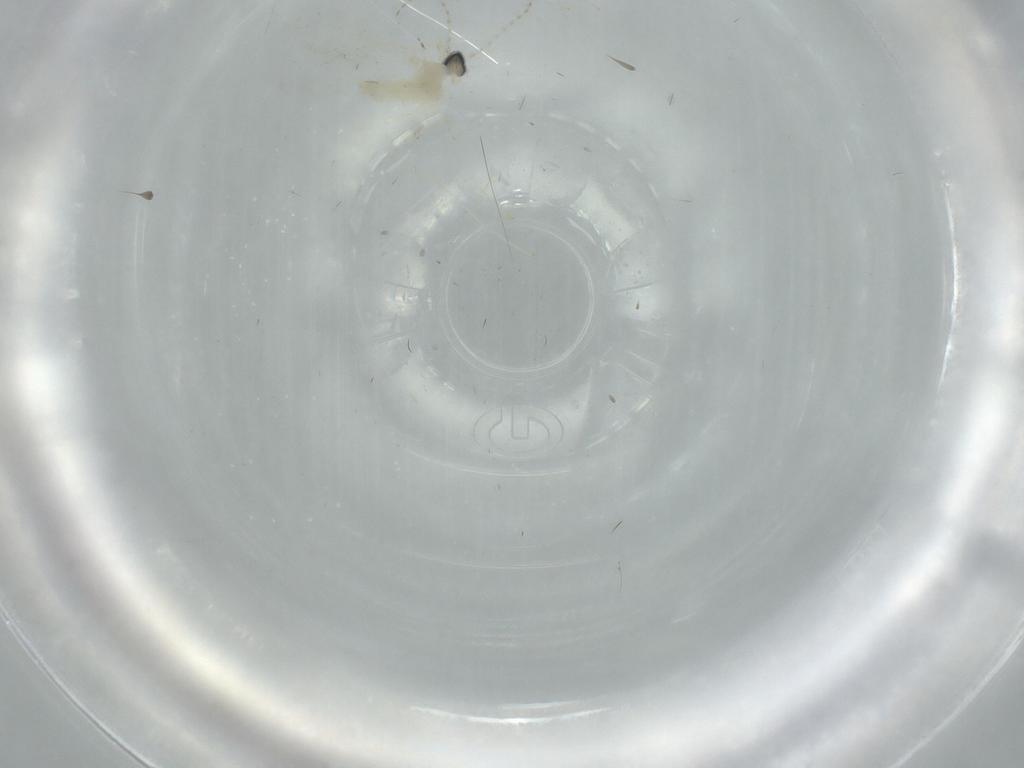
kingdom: Animalia
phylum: Arthropoda
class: Insecta
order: Diptera
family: Cecidomyiidae
